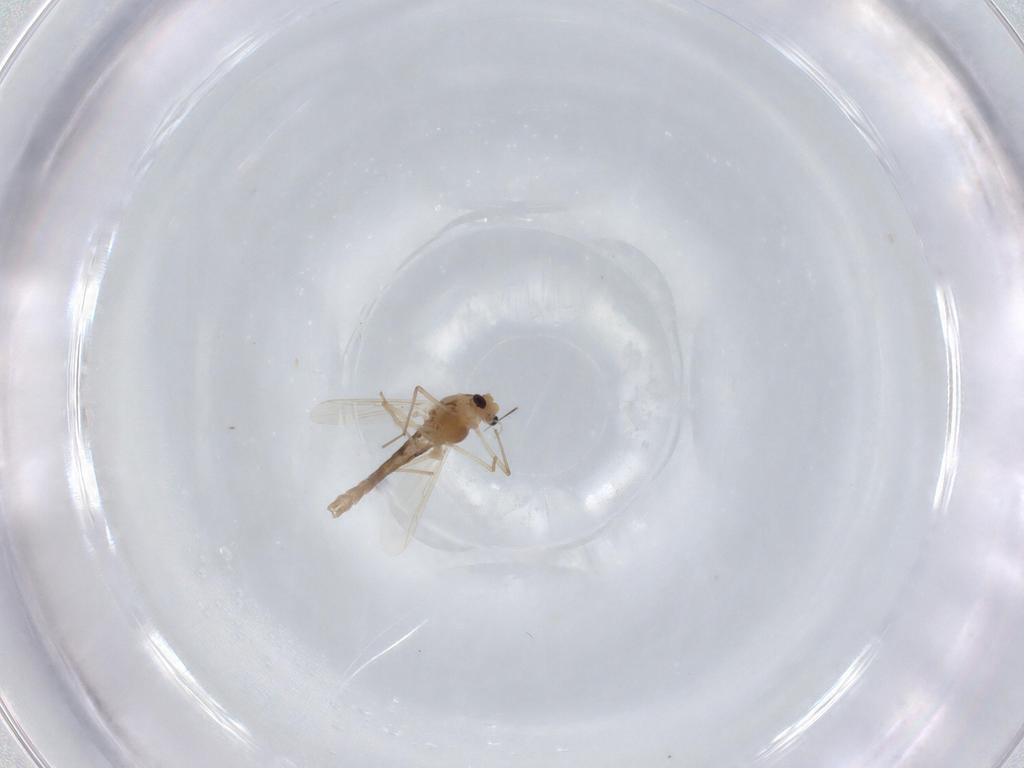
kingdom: Animalia
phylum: Arthropoda
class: Insecta
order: Diptera
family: Chironomidae
